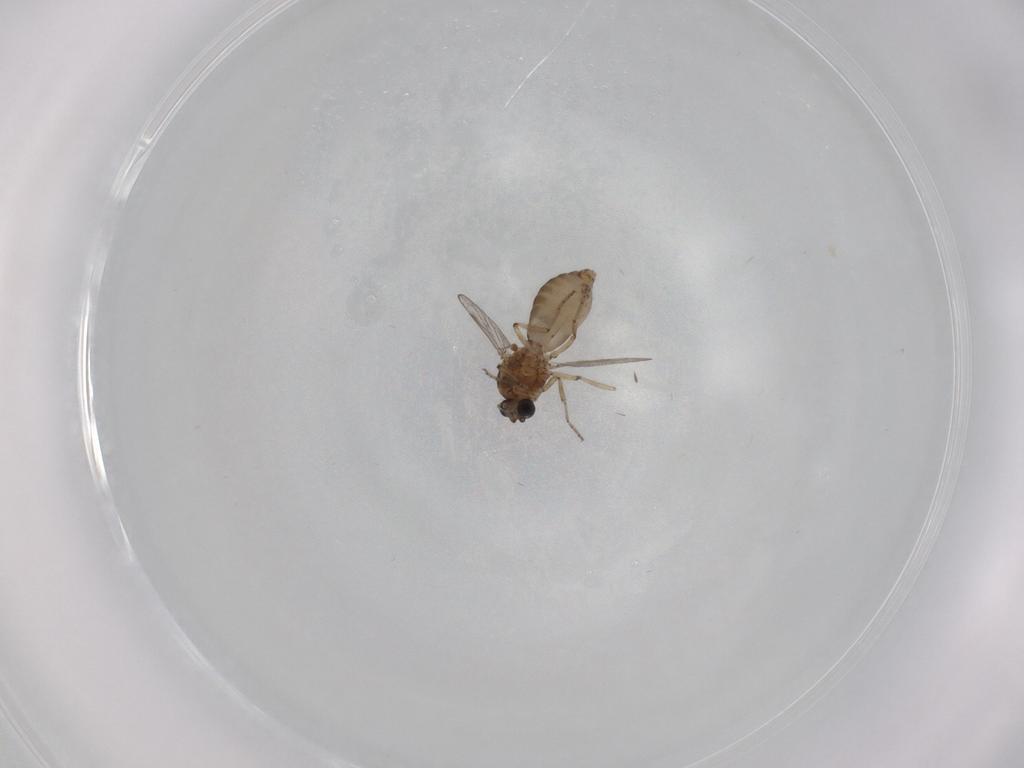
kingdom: Animalia
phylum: Arthropoda
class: Insecta
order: Diptera
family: Ceratopogonidae
